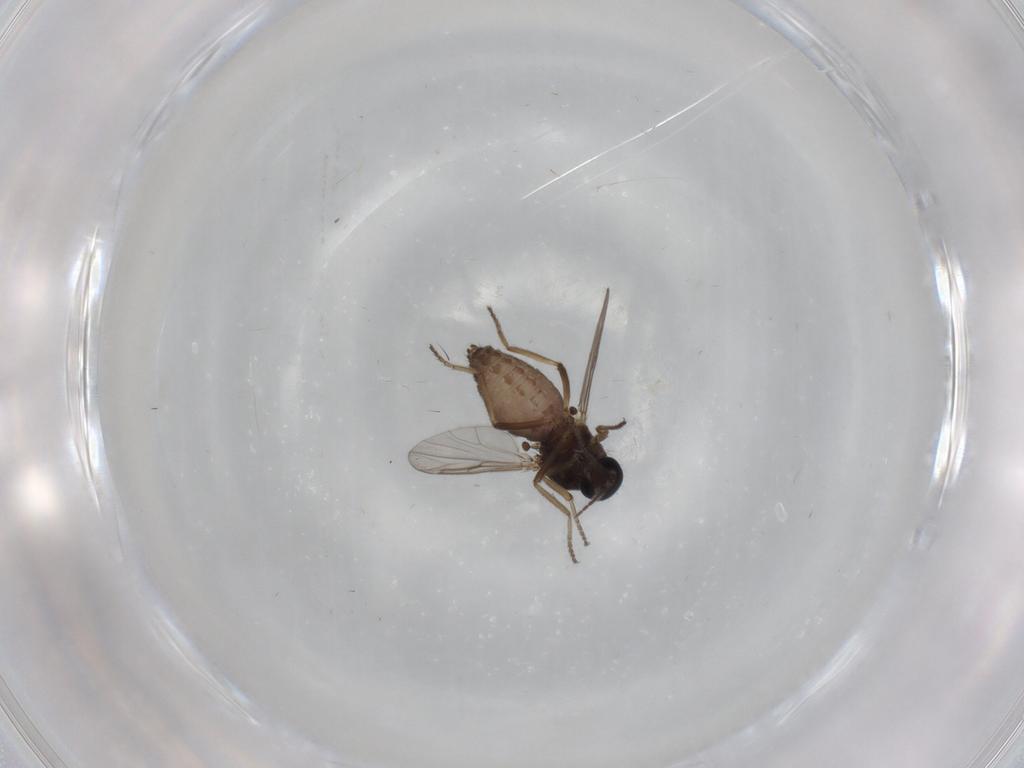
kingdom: Animalia
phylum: Arthropoda
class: Insecta
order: Diptera
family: Ceratopogonidae
